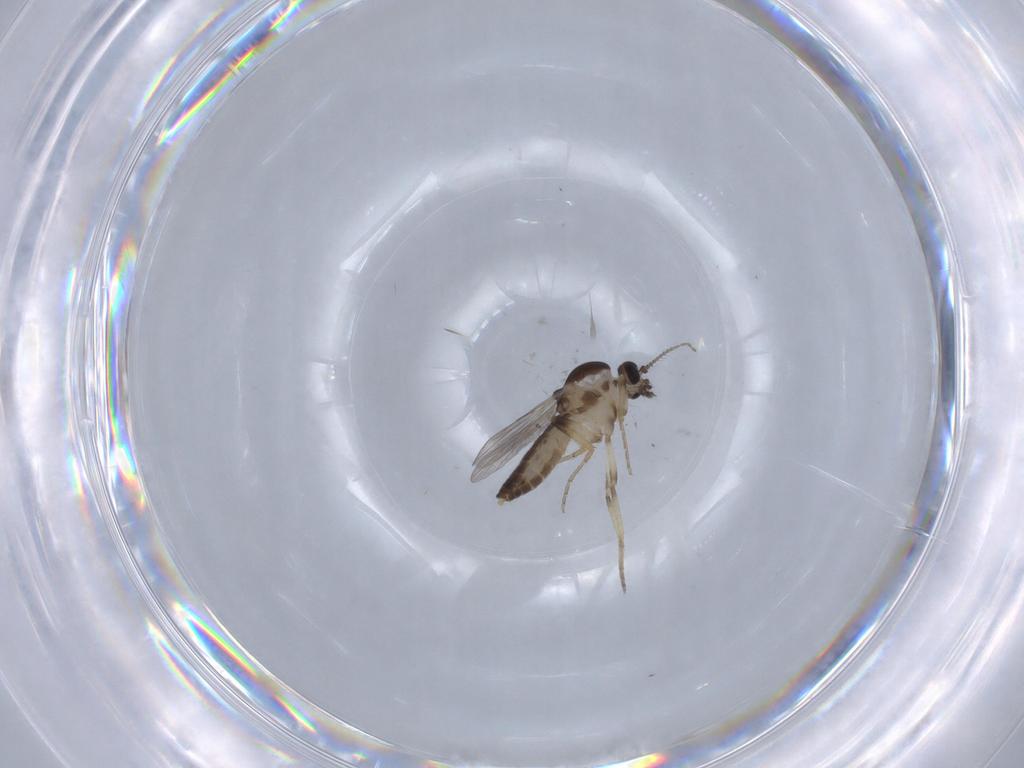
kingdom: Animalia
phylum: Arthropoda
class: Insecta
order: Diptera
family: Ceratopogonidae
